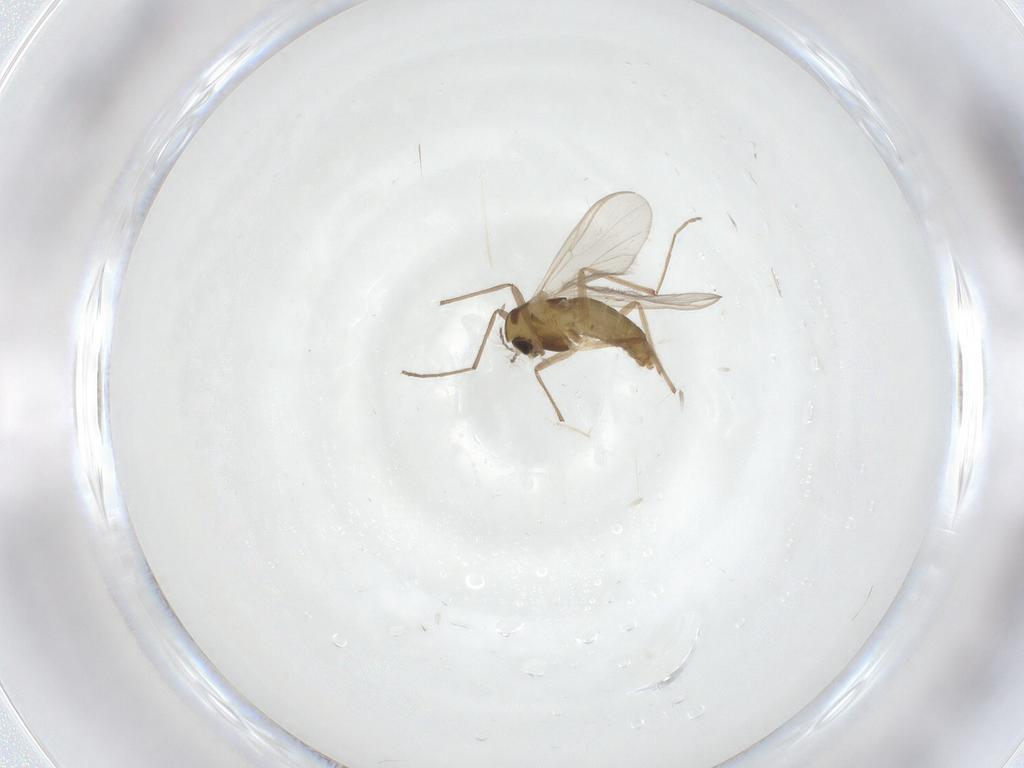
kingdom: Animalia
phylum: Arthropoda
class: Insecta
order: Diptera
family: Chironomidae
